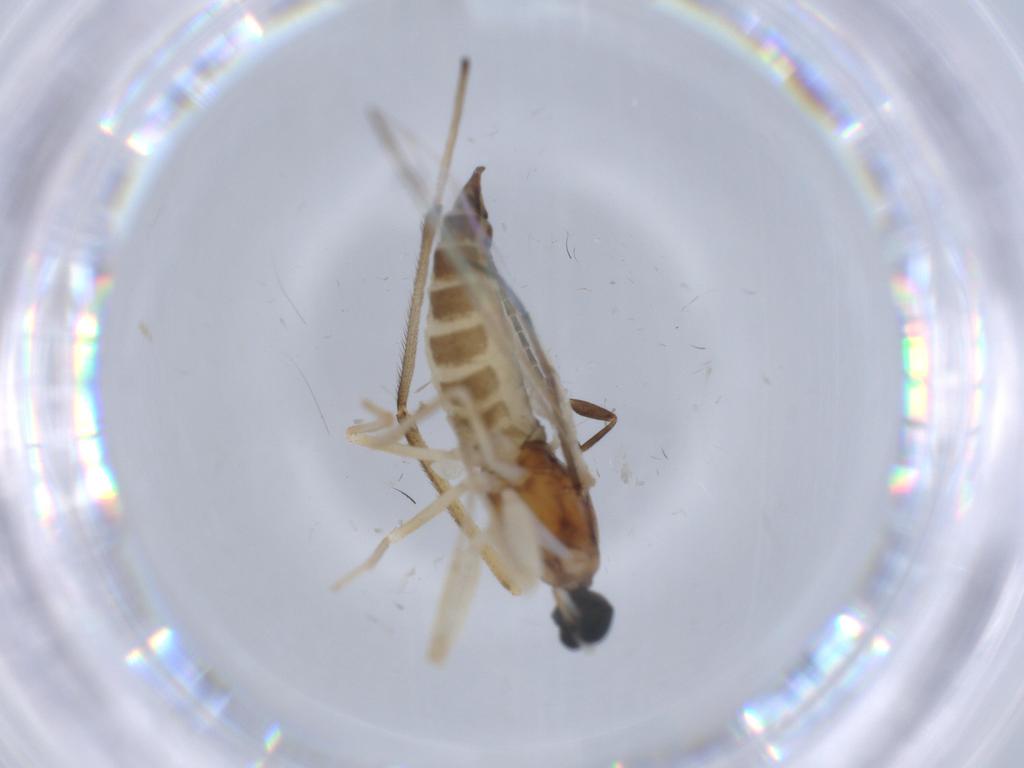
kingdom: Animalia
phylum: Arthropoda
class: Insecta
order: Diptera
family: Empididae
